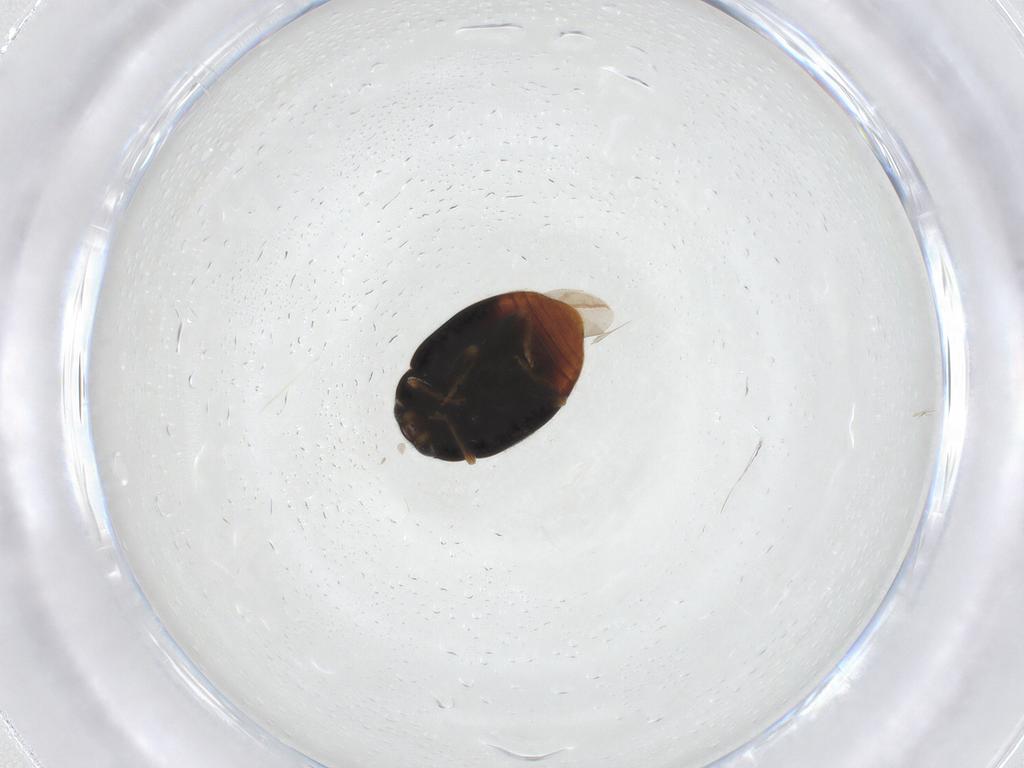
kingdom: Animalia
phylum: Arthropoda
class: Insecta
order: Coleoptera
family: Coccinellidae
